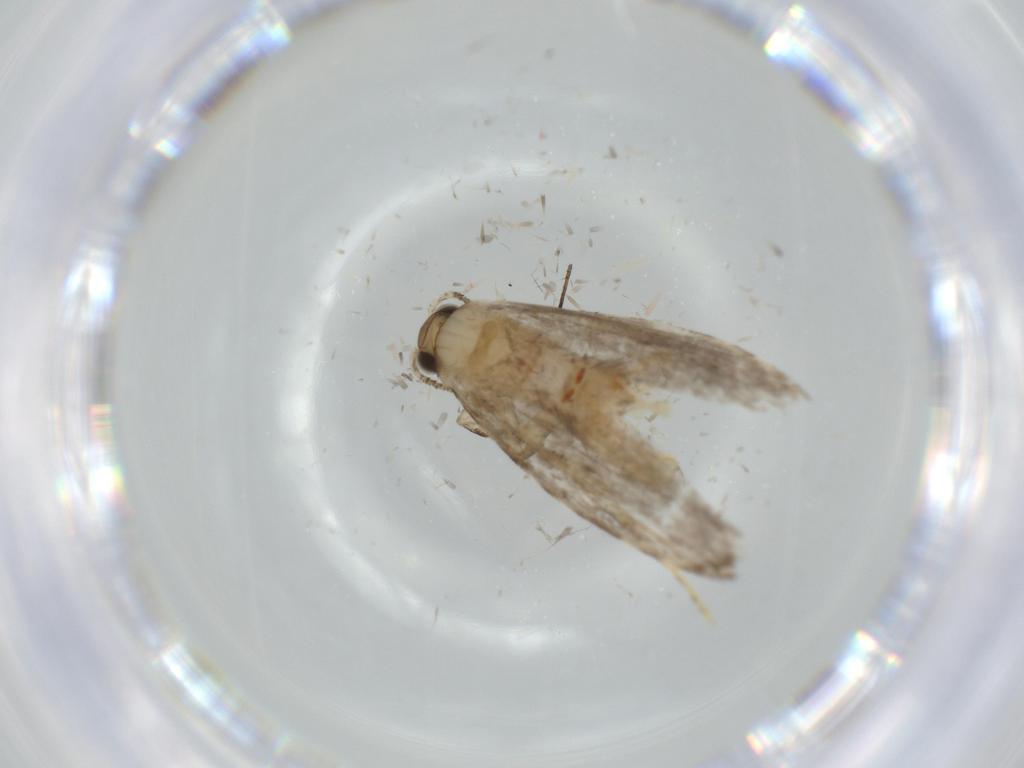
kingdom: Animalia
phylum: Arthropoda
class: Insecta
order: Lepidoptera
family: Tineidae
